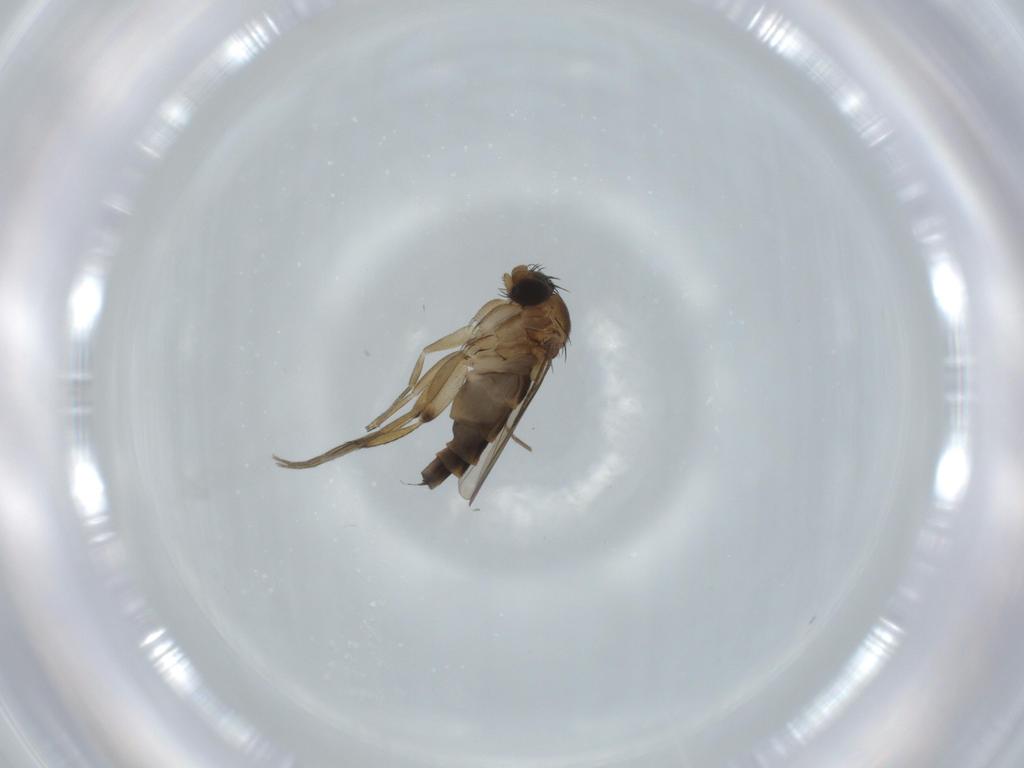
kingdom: Animalia
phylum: Arthropoda
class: Insecta
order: Diptera
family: Phoridae
